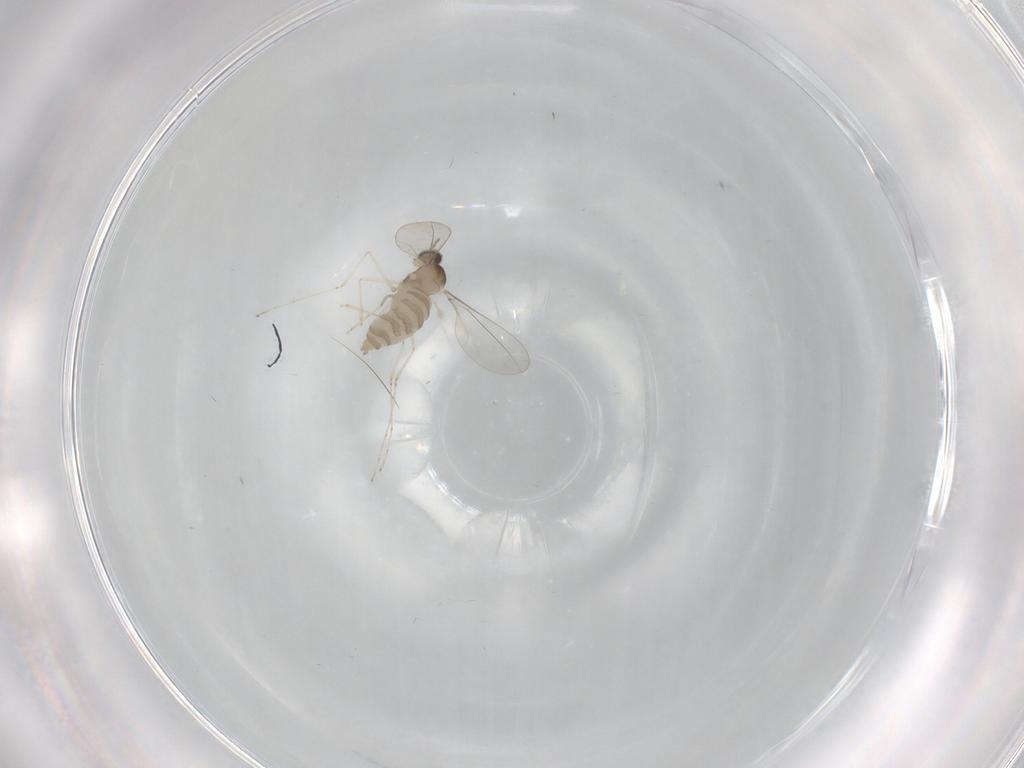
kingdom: Animalia
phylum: Arthropoda
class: Insecta
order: Diptera
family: Cecidomyiidae
